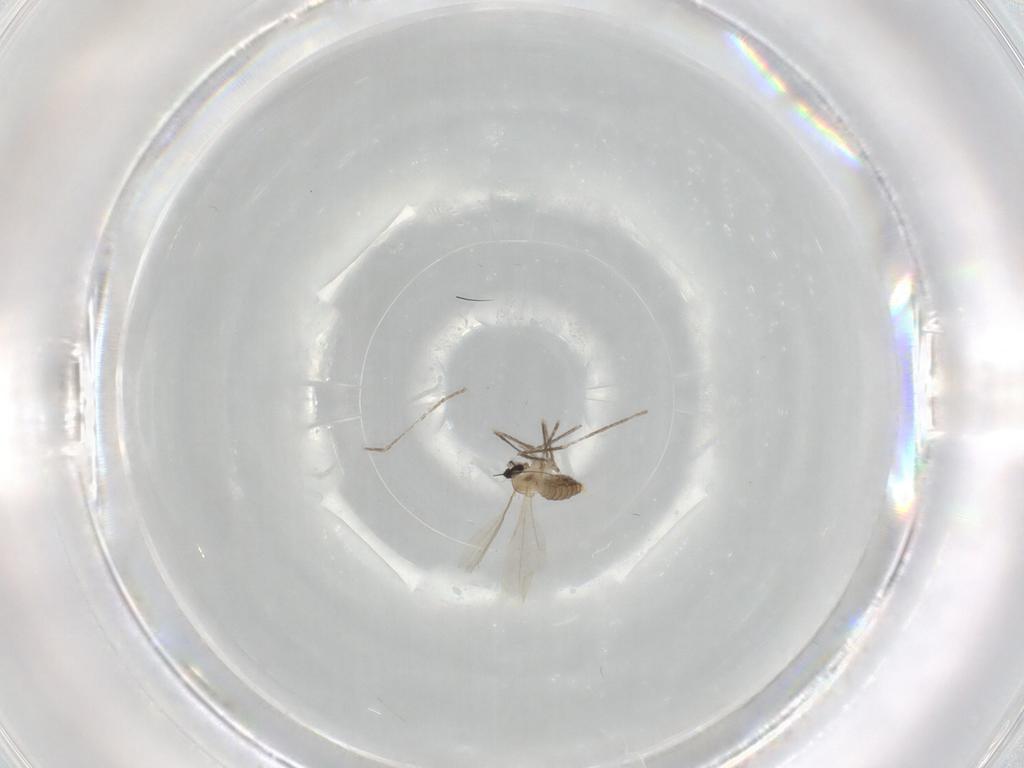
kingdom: Animalia
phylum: Arthropoda
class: Insecta
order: Diptera
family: Cecidomyiidae
